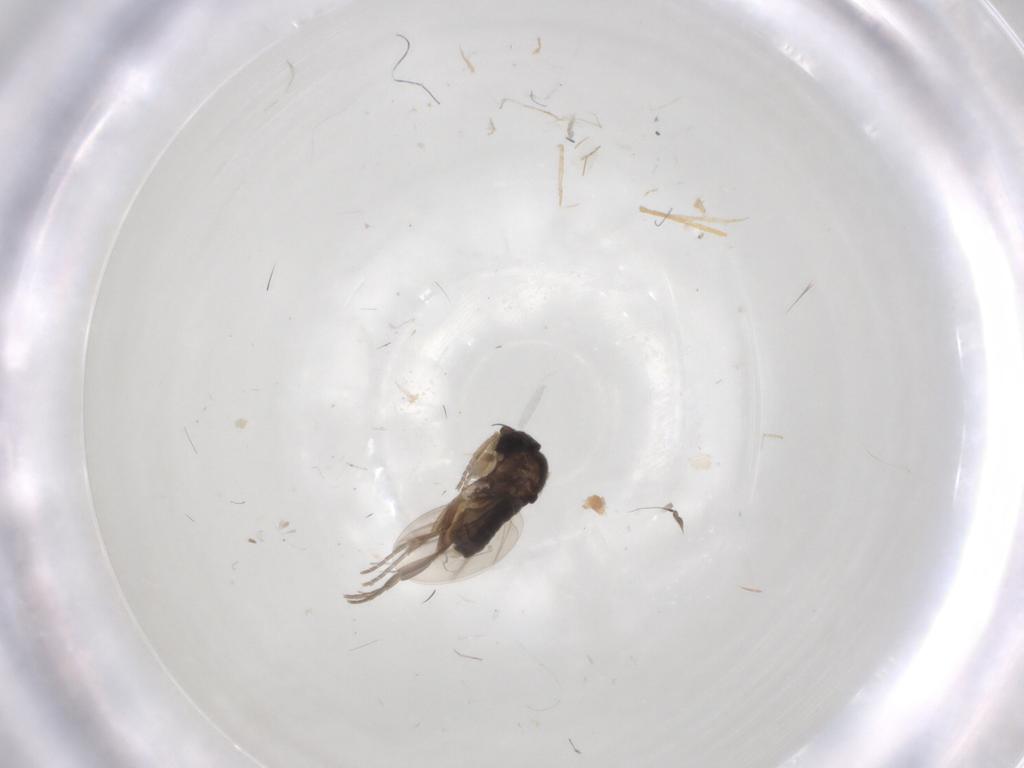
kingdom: Animalia
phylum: Arthropoda
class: Insecta
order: Diptera
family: Phoridae
